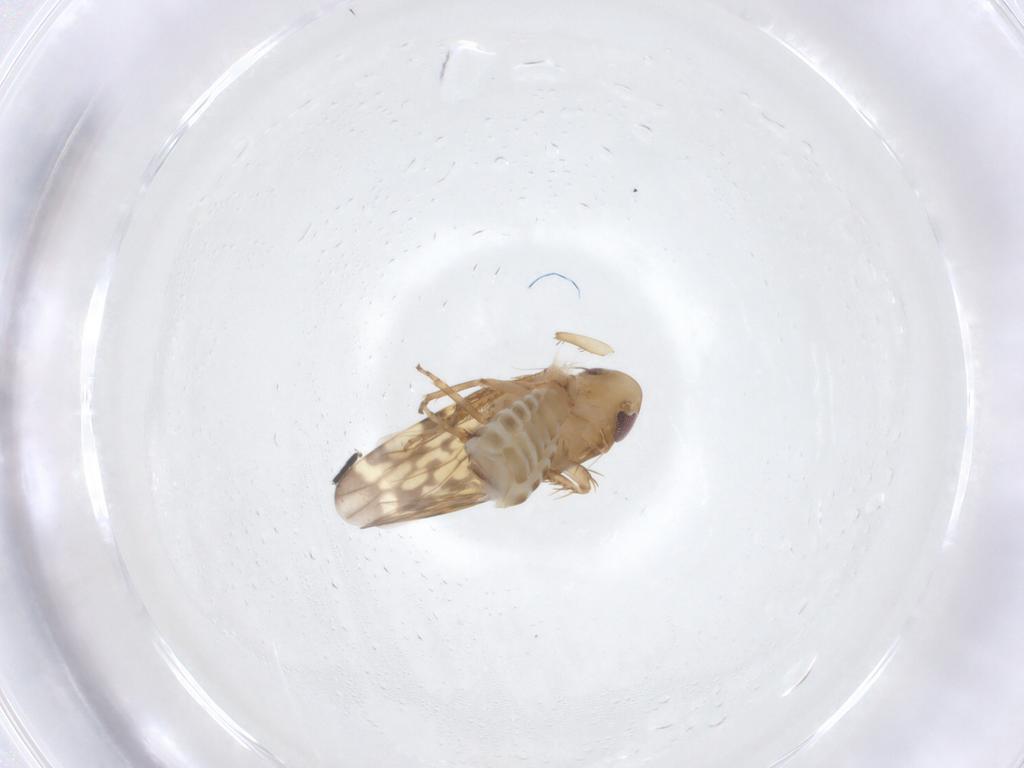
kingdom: Animalia
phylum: Arthropoda
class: Insecta
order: Hemiptera
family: Cicadellidae
